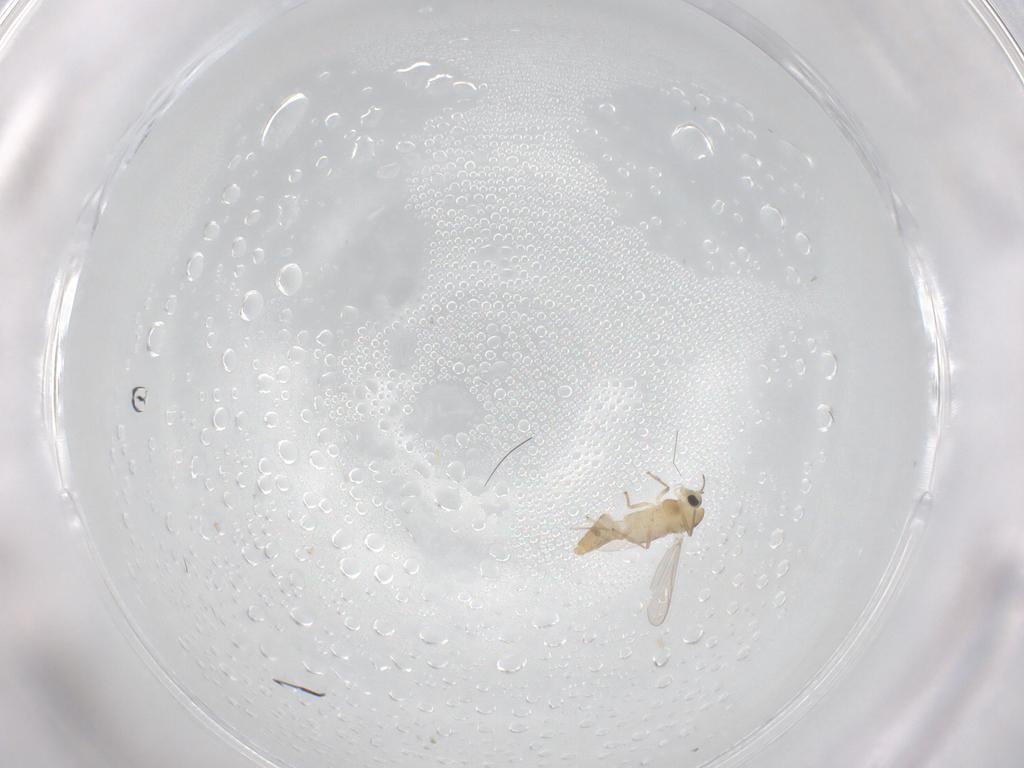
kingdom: Animalia
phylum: Arthropoda
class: Insecta
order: Diptera
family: Chironomidae
